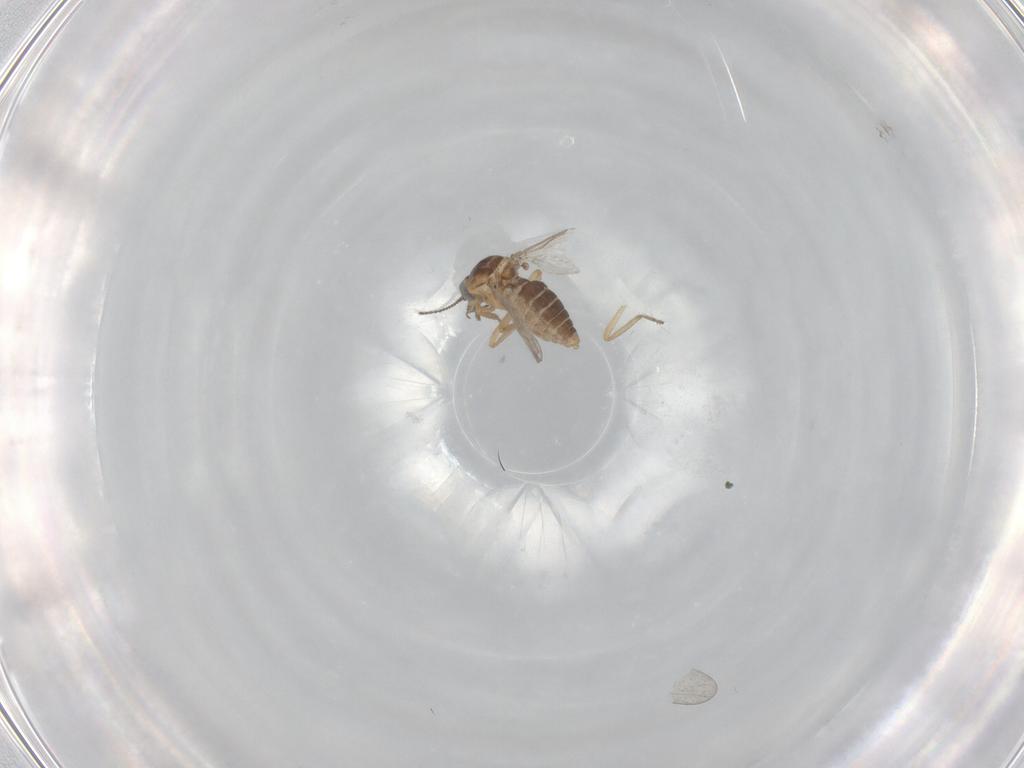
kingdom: Animalia
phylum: Arthropoda
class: Insecta
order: Diptera
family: Ceratopogonidae
